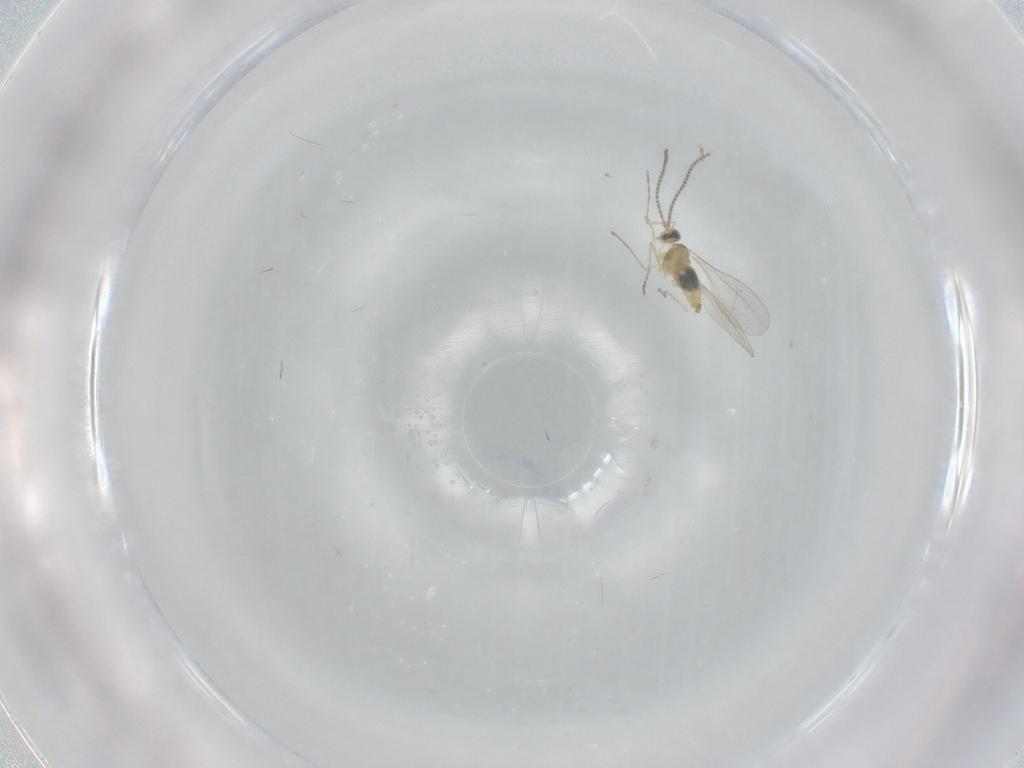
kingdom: Animalia
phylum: Arthropoda
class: Insecta
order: Diptera
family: Cecidomyiidae
